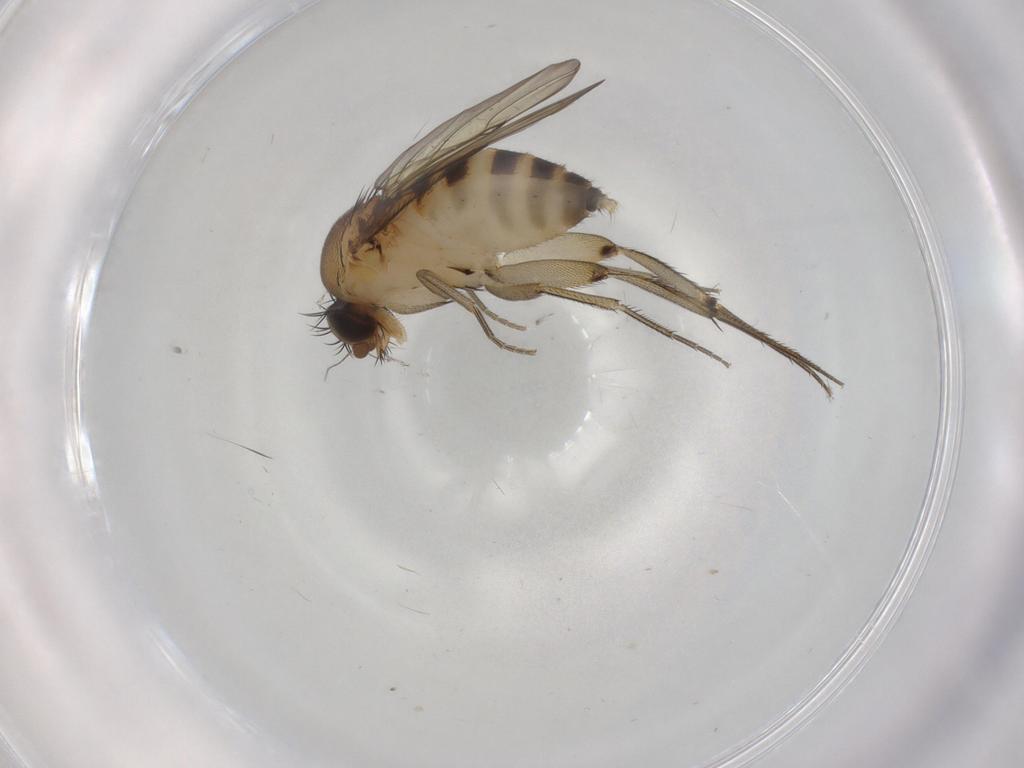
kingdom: Animalia
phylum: Arthropoda
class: Insecta
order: Diptera
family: Phoridae
